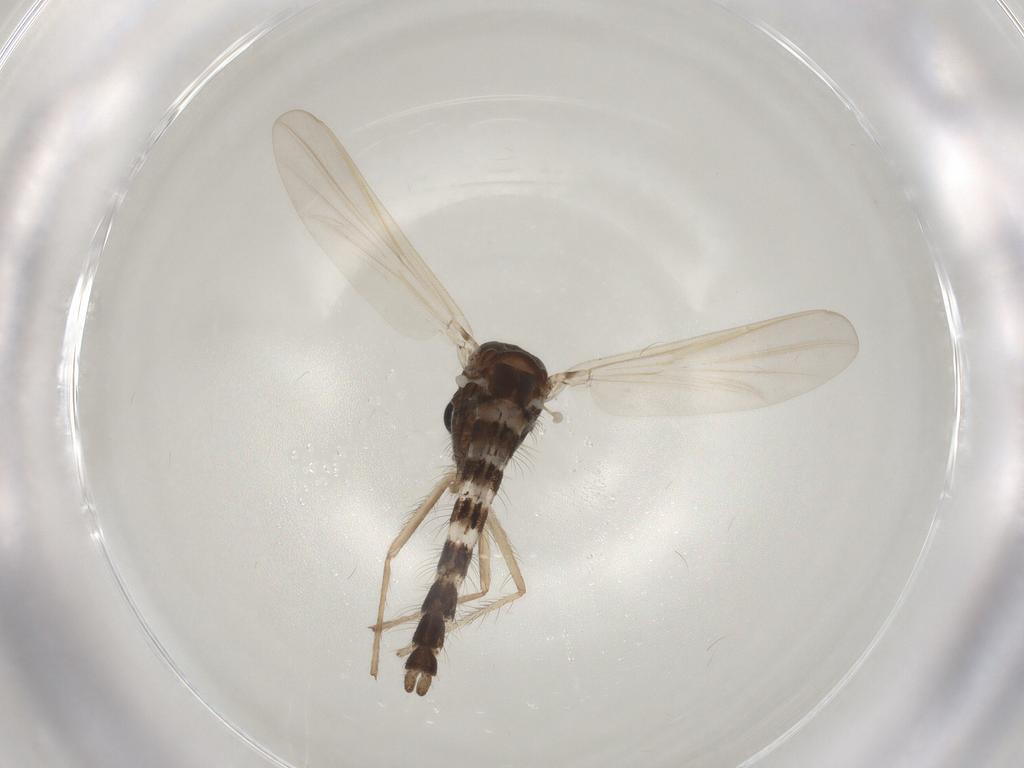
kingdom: Animalia
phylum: Arthropoda
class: Insecta
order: Diptera
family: Chironomidae
